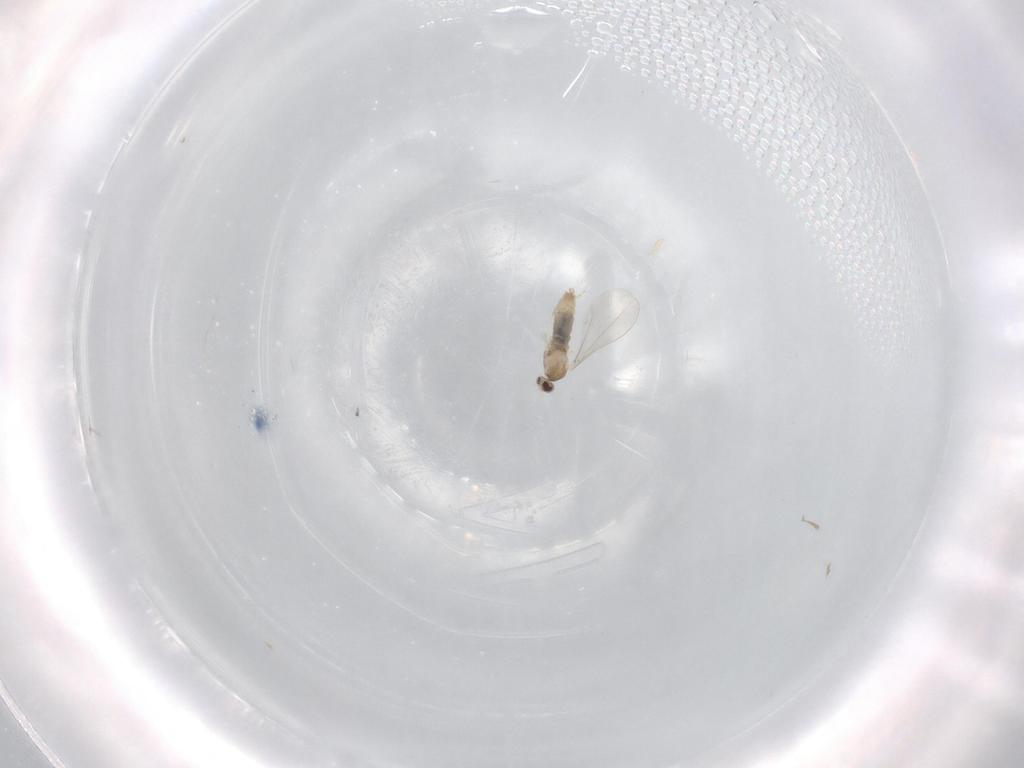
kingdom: Animalia
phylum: Arthropoda
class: Insecta
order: Diptera
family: Cecidomyiidae
